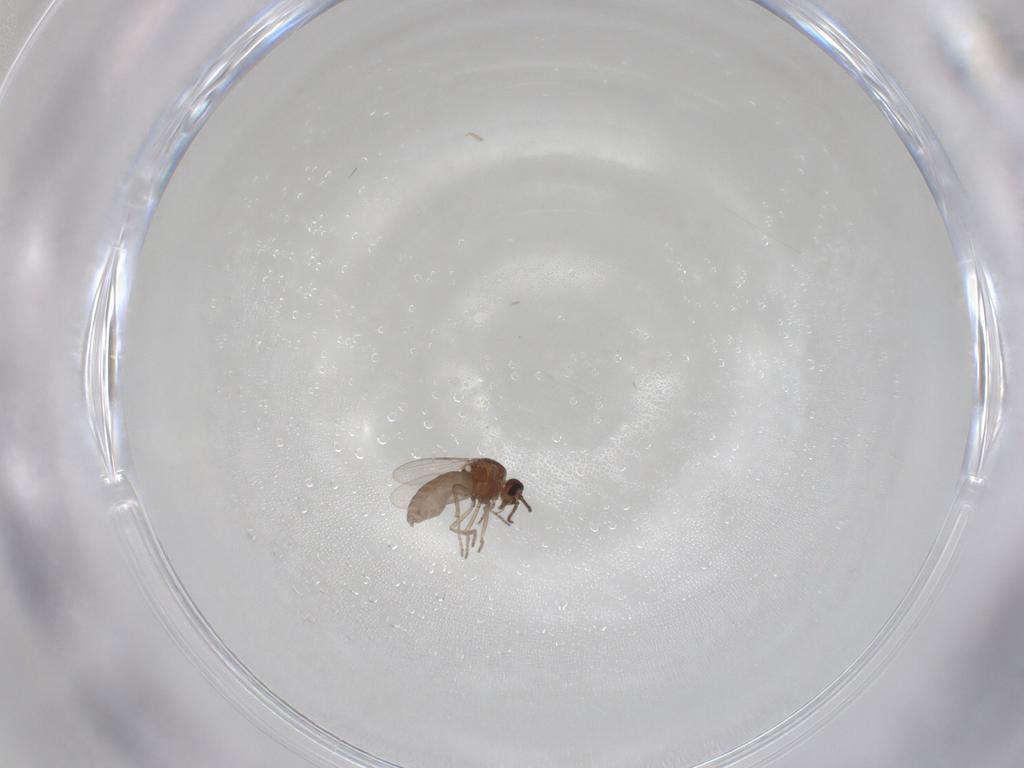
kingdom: Animalia
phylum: Arthropoda
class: Insecta
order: Diptera
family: Ceratopogonidae
